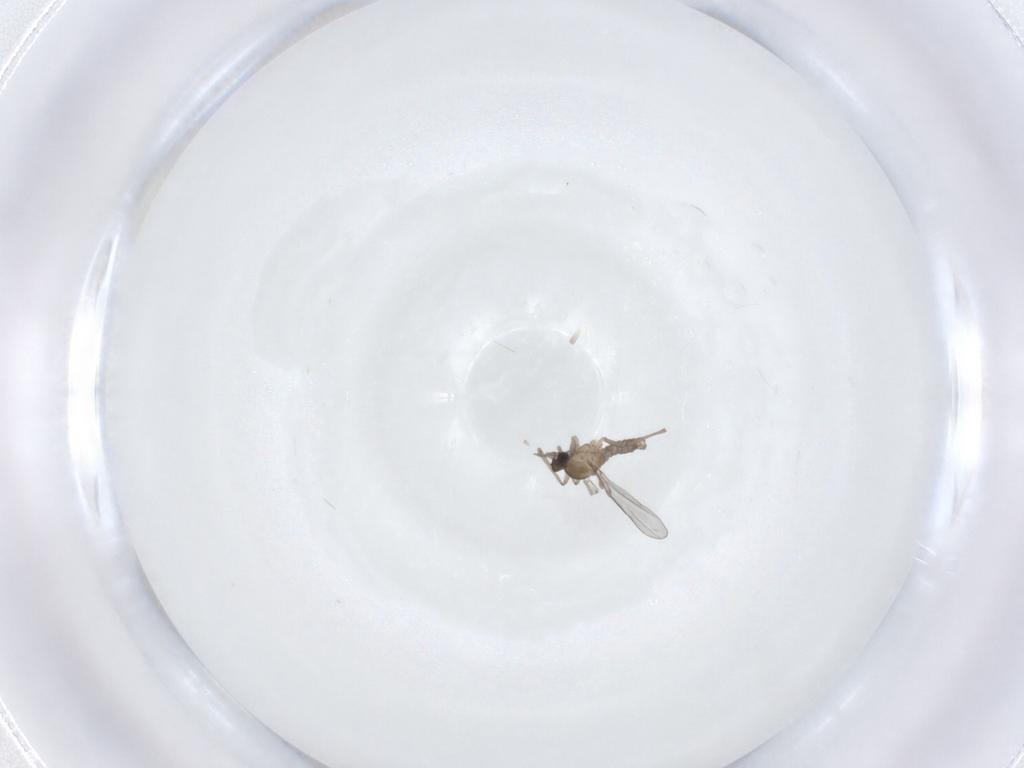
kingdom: Animalia
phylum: Arthropoda
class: Insecta
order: Diptera
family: Cecidomyiidae
